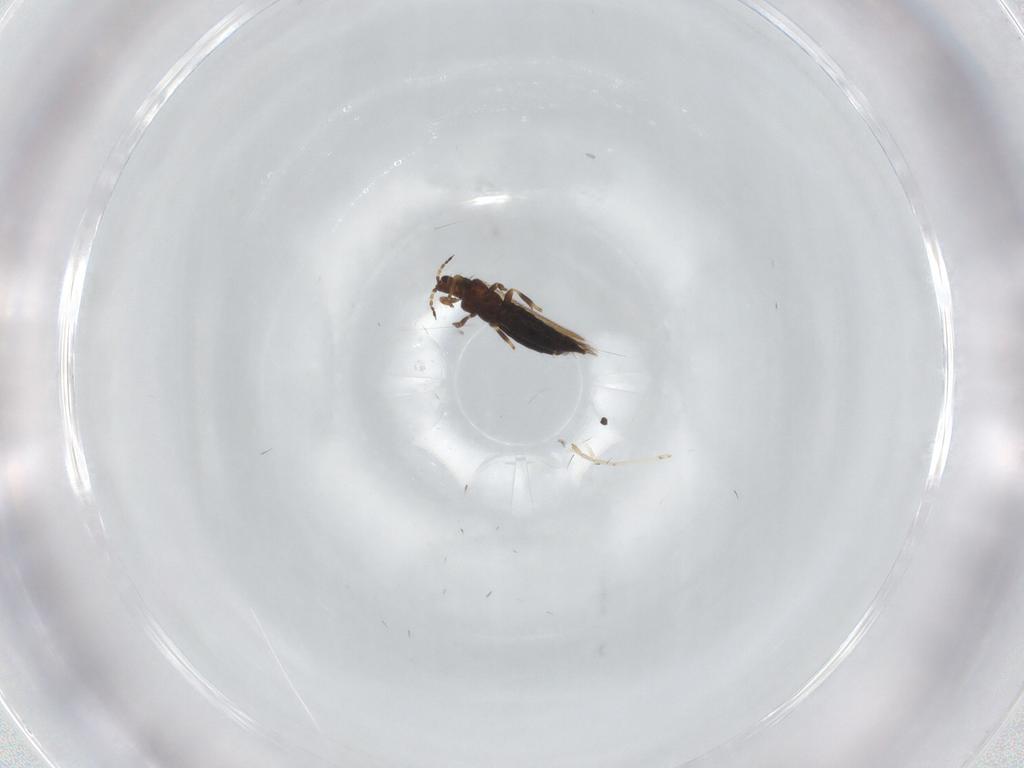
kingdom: Animalia
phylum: Arthropoda
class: Insecta
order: Thysanoptera
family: Thripidae
